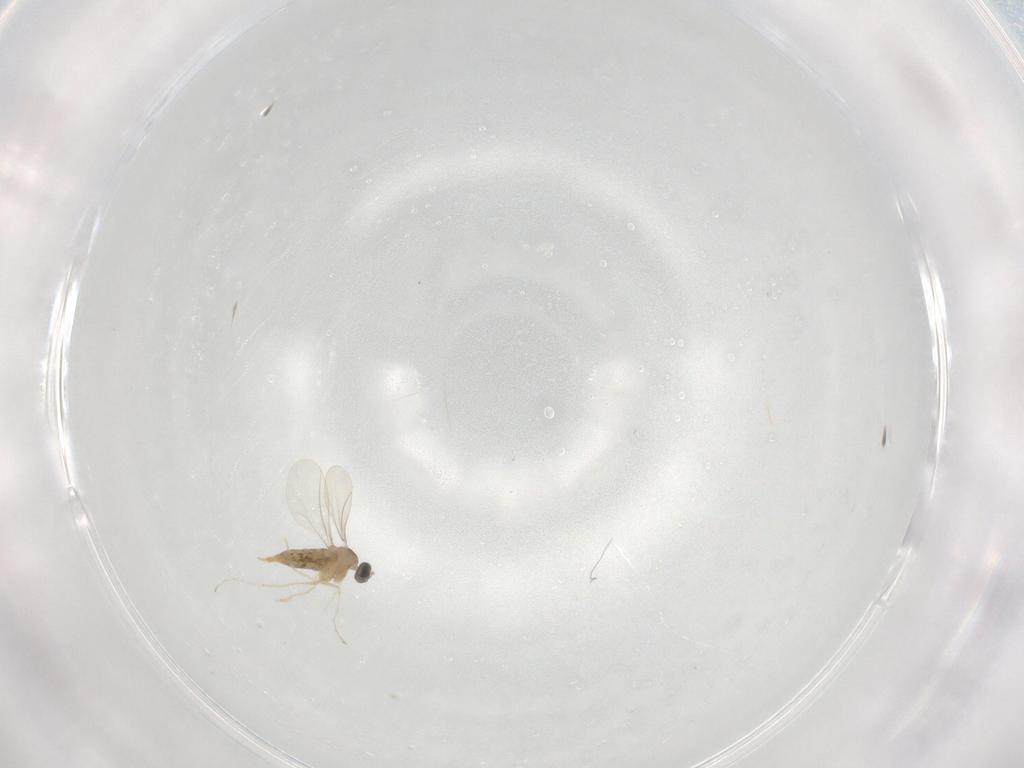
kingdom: Animalia
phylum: Arthropoda
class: Insecta
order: Diptera
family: Cecidomyiidae
